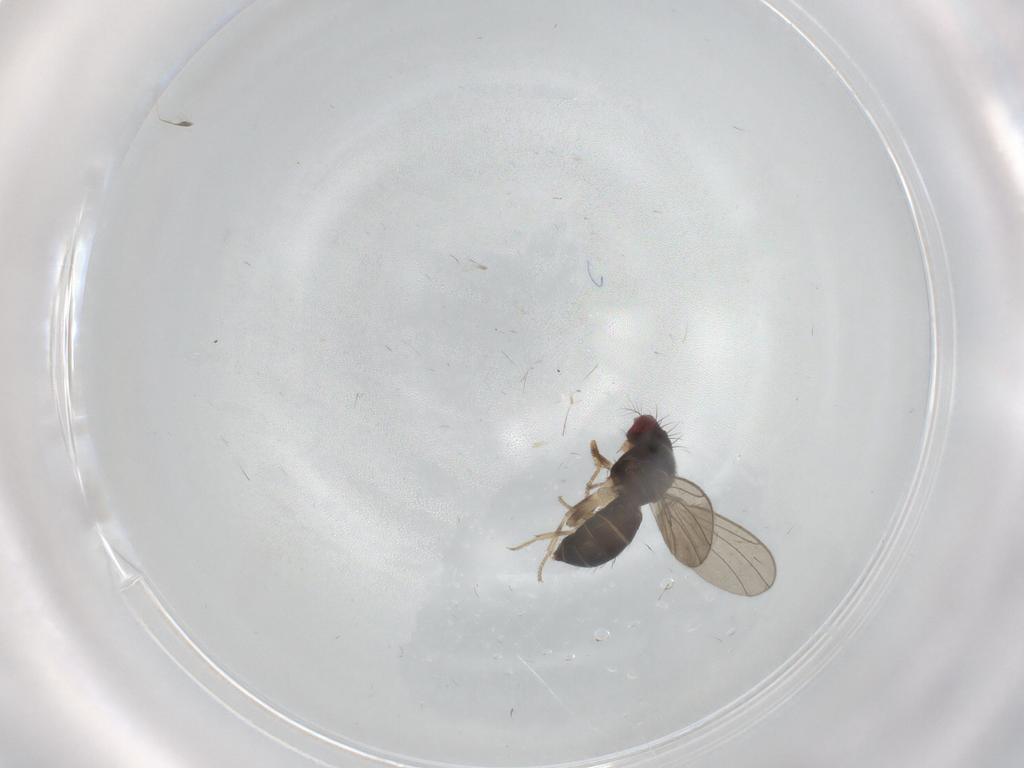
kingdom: Animalia
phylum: Arthropoda
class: Insecta
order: Diptera
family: Drosophilidae
